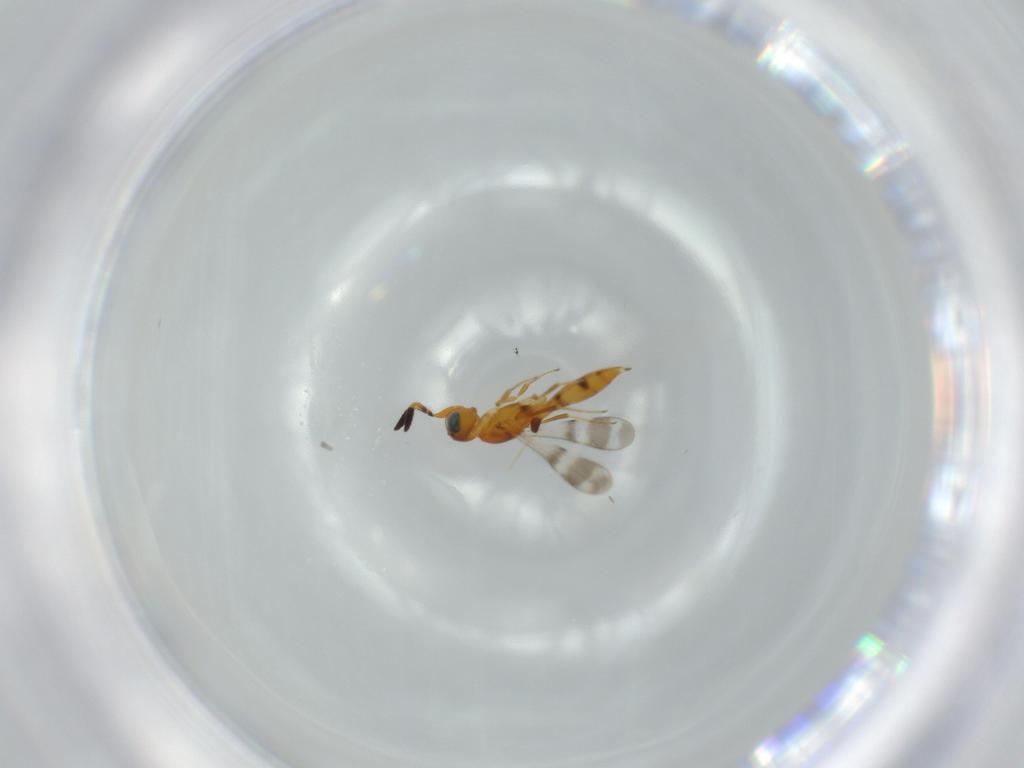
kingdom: Animalia
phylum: Arthropoda
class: Insecta
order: Hymenoptera
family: Scelionidae
